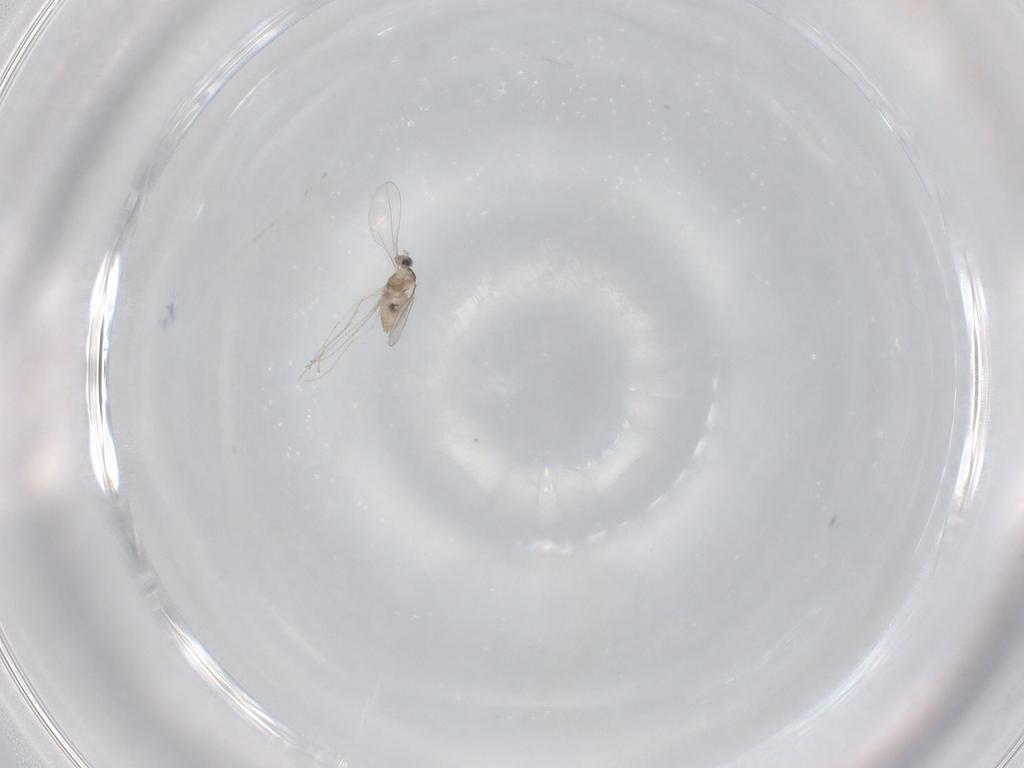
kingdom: Animalia
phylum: Arthropoda
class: Insecta
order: Diptera
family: Cecidomyiidae
